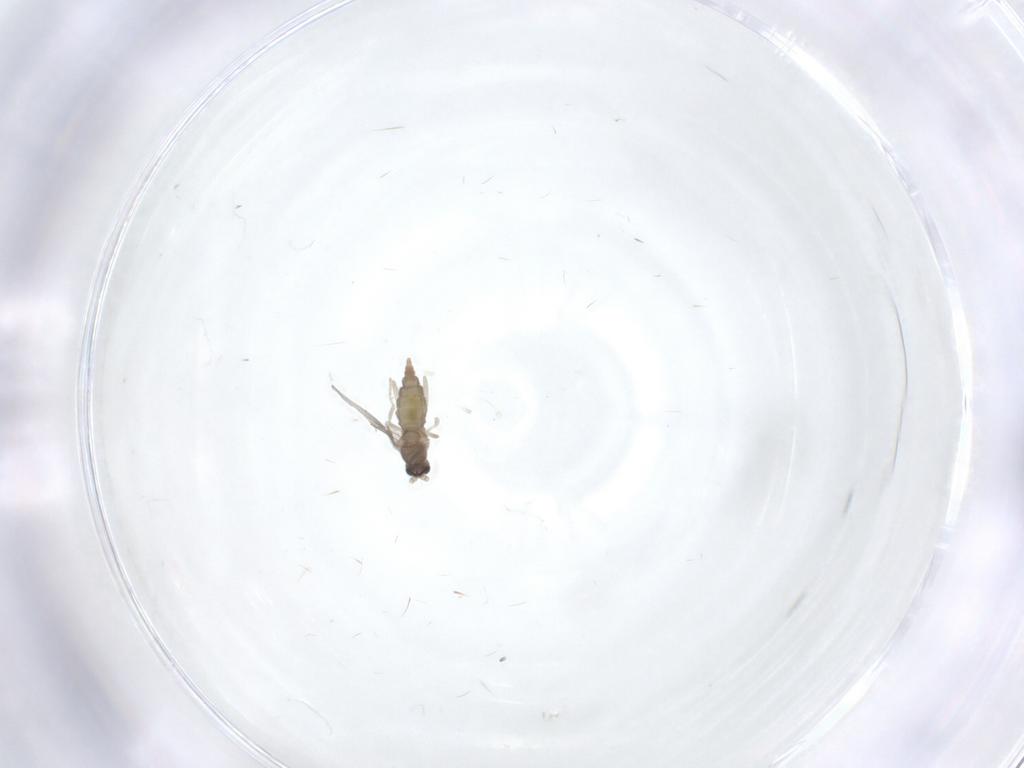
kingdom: Animalia
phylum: Arthropoda
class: Insecta
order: Diptera
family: Cecidomyiidae
